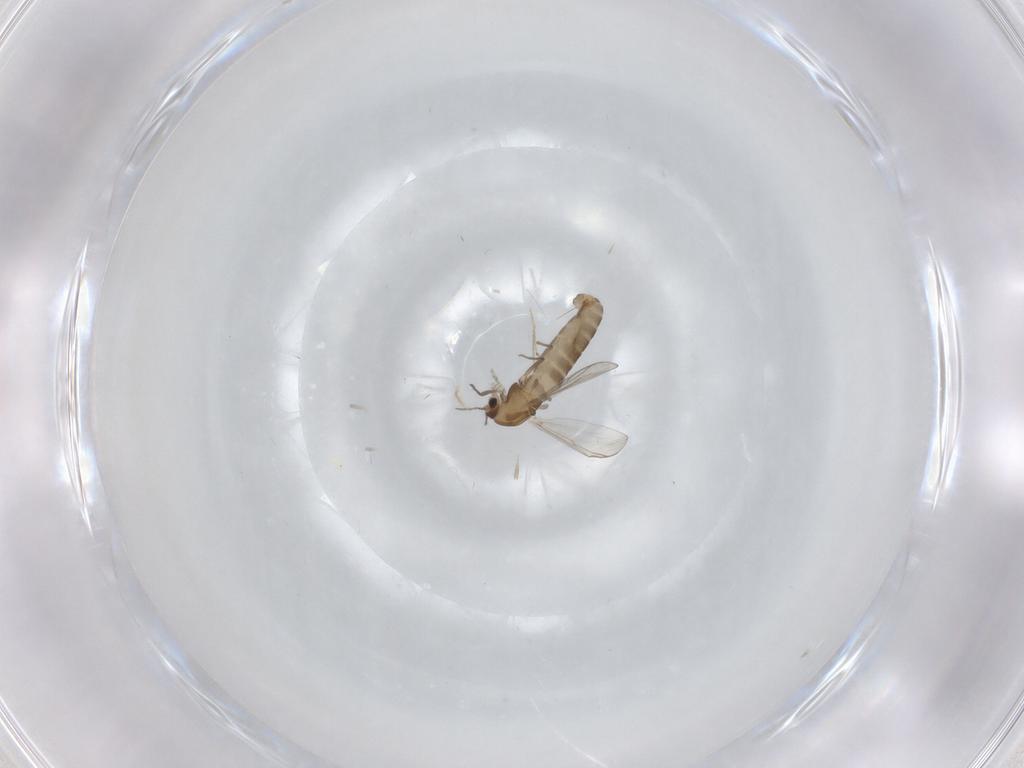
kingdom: Animalia
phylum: Arthropoda
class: Insecta
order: Diptera
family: Chironomidae
